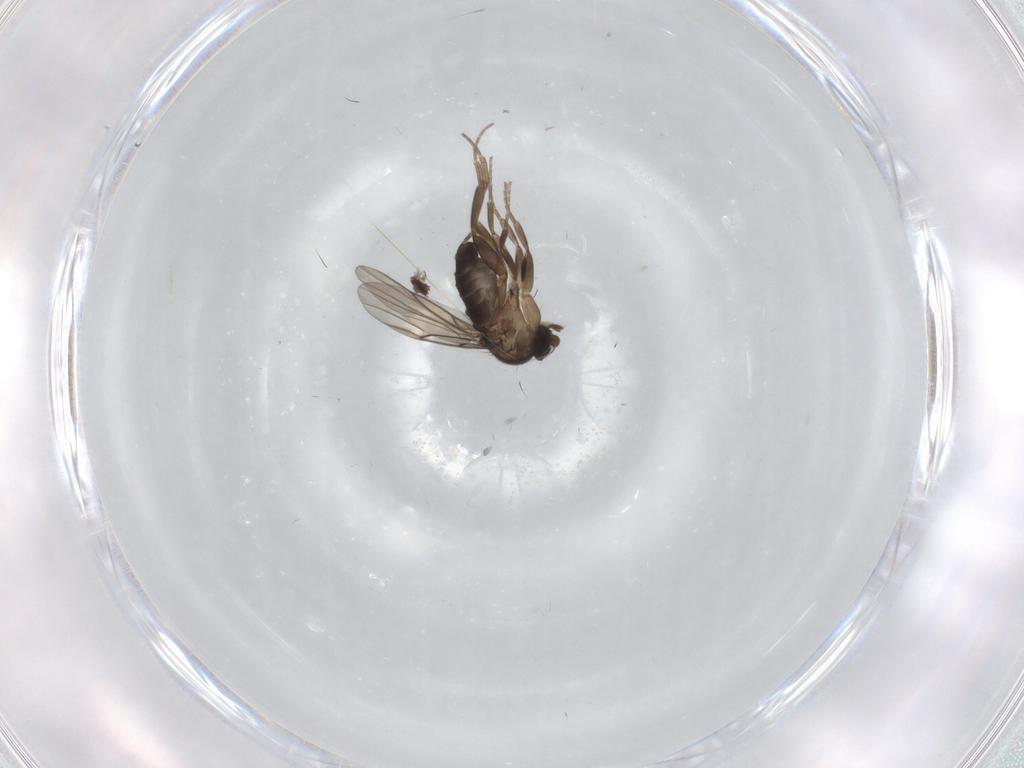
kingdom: Animalia
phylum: Arthropoda
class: Insecta
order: Diptera
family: Phoridae
